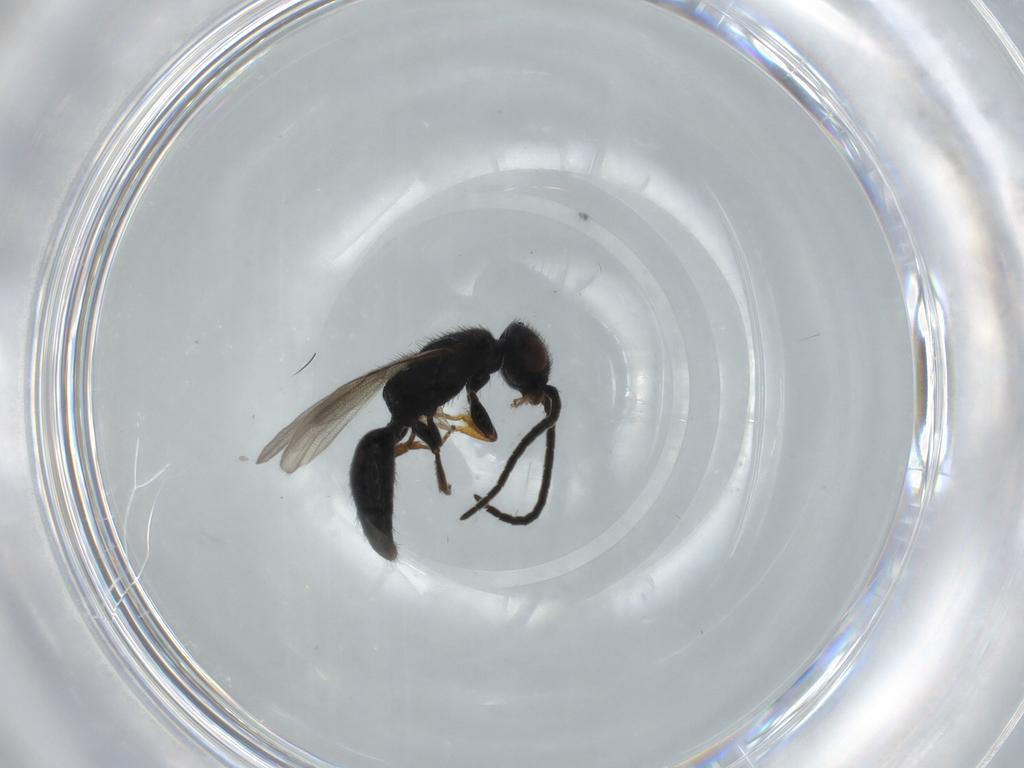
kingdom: Animalia
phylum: Arthropoda
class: Insecta
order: Hymenoptera
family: Bethylidae
